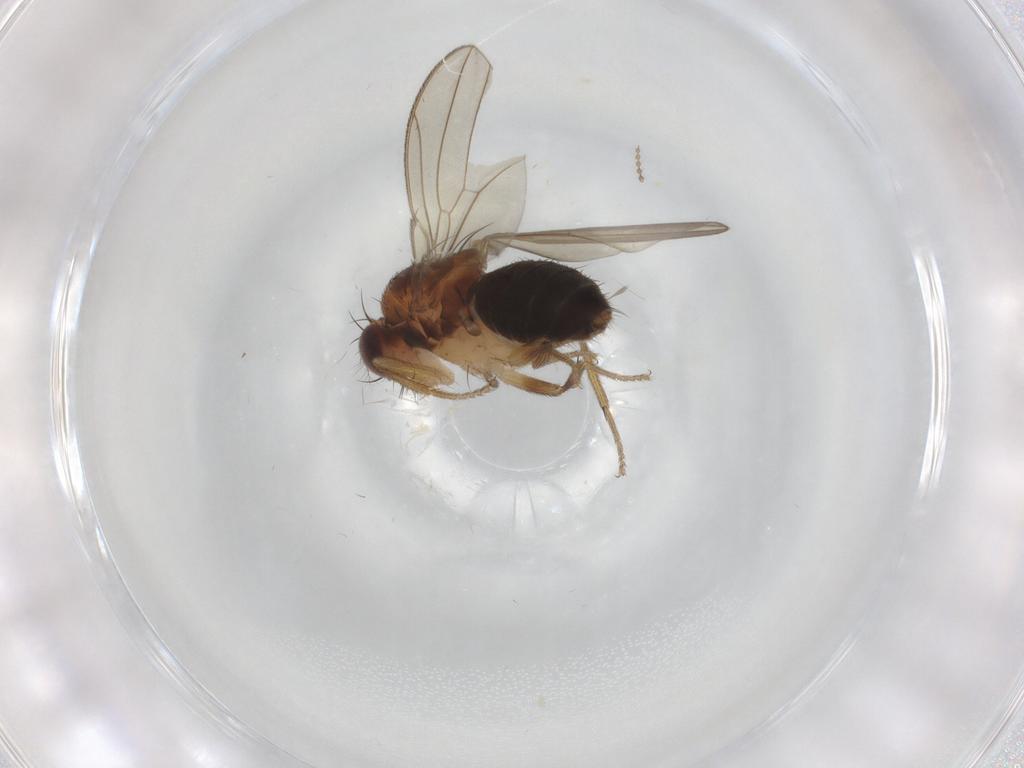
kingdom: Animalia
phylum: Arthropoda
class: Insecta
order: Diptera
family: Drosophilidae
